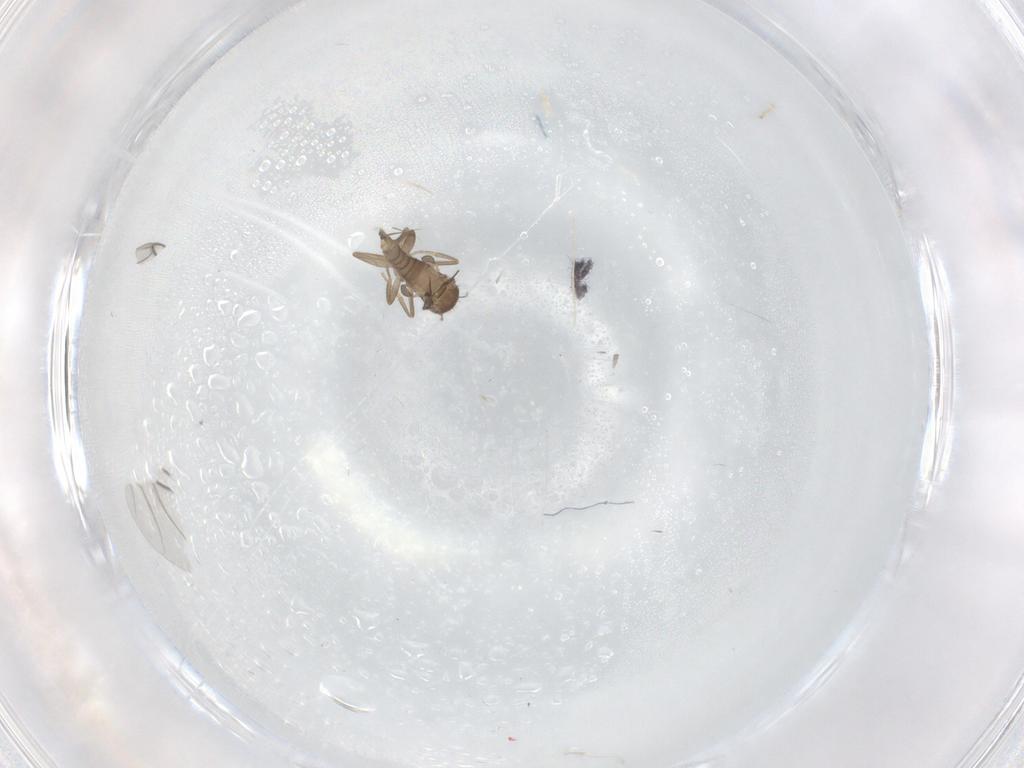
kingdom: Animalia
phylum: Arthropoda
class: Insecta
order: Diptera
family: Psychodidae
